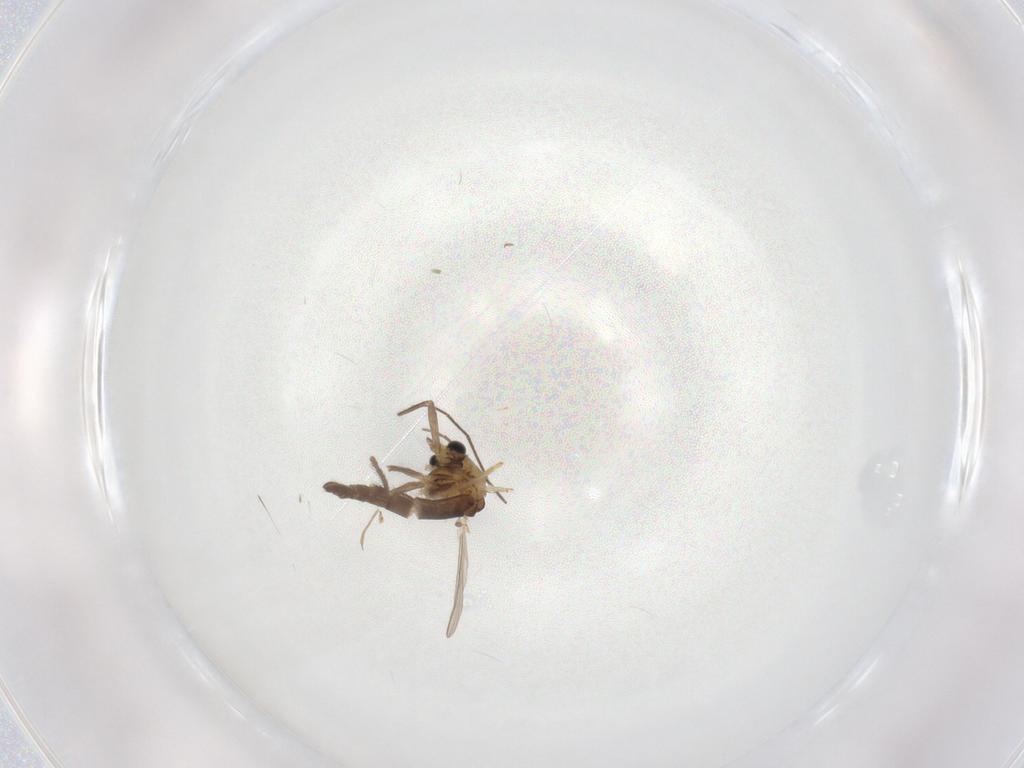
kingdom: Animalia
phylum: Arthropoda
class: Insecta
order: Diptera
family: Chironomidae
